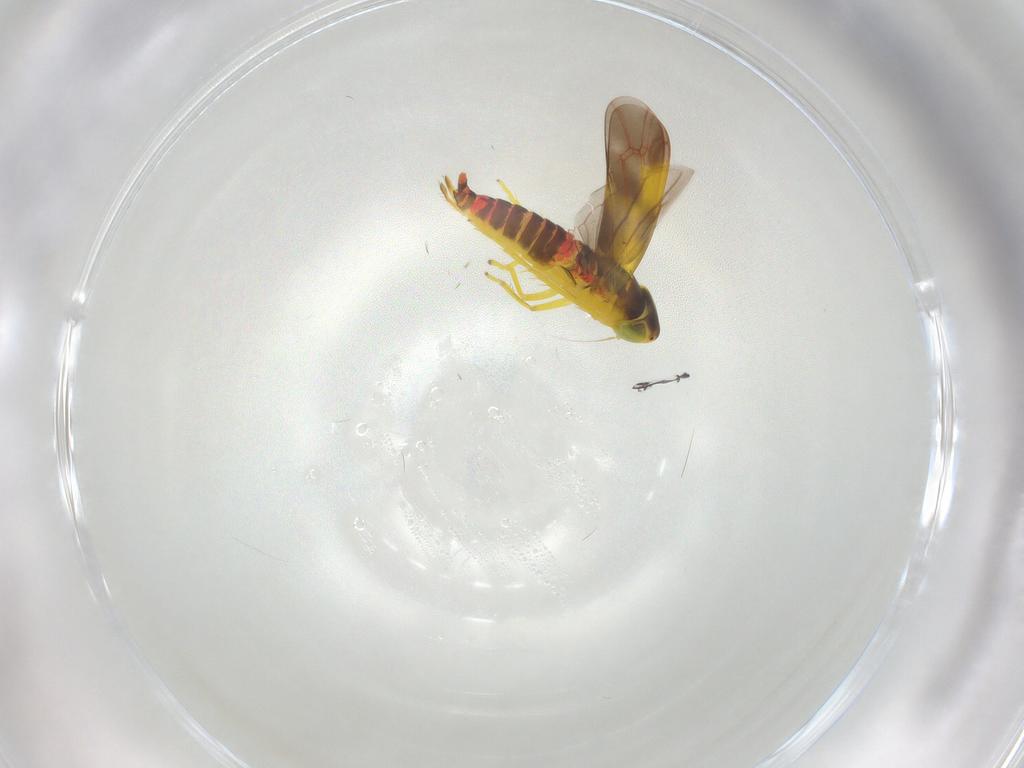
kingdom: Animalia
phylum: Arthropoda
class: Insecta
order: Hemiptera
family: Cicadellidae
